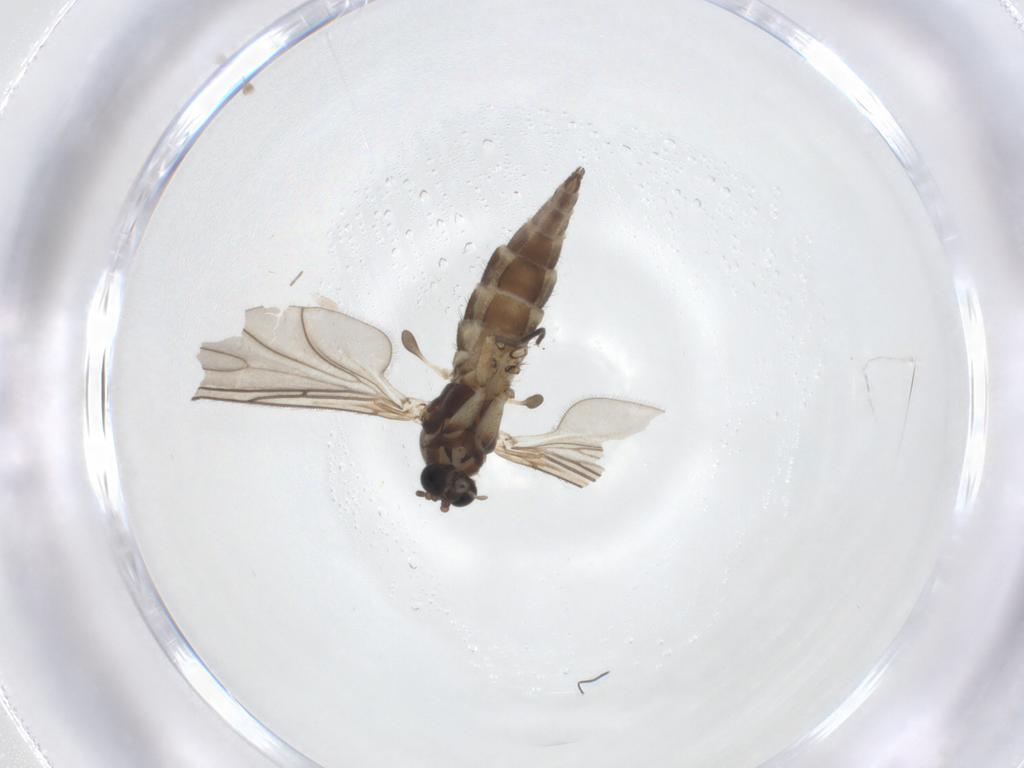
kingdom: Animalia
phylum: Arthropoda
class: Insecta
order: Diptera
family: Sciaridae
